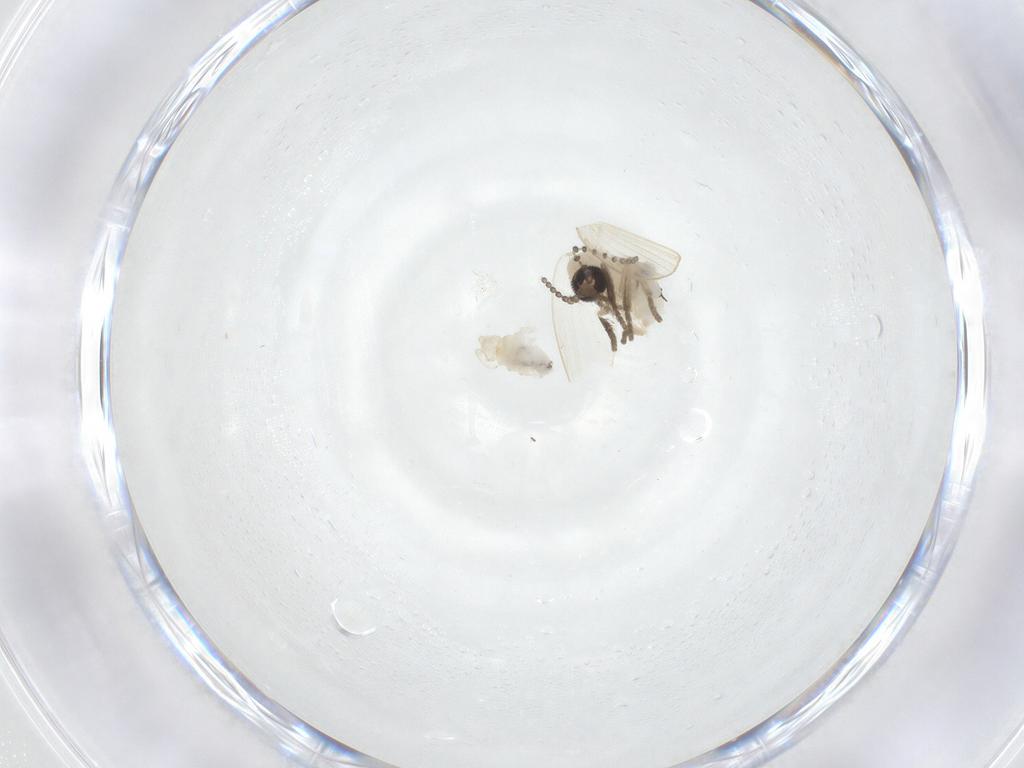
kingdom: Animalia
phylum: Arthropoda
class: Insecta
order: Diptera
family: Psychodidae
